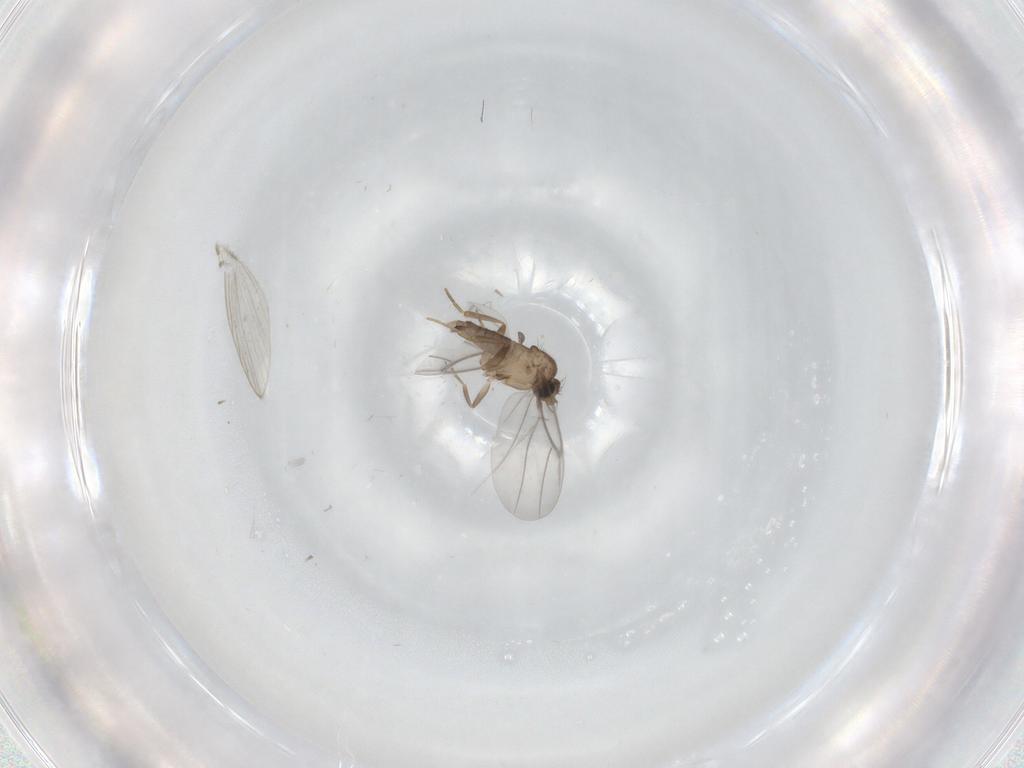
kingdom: Animalia
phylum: Arthropoda
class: Insecta
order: Diptera
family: Psychodidae
